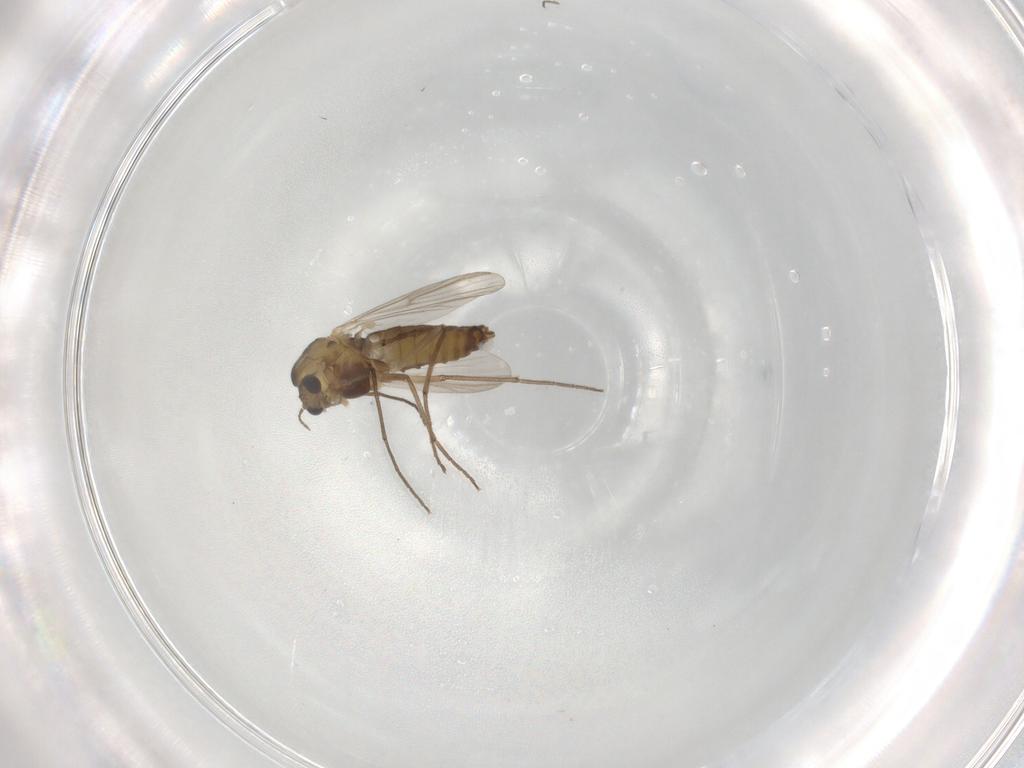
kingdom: Animalia
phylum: Arthropoda
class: Insecta
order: Diptera
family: Chironomidae
